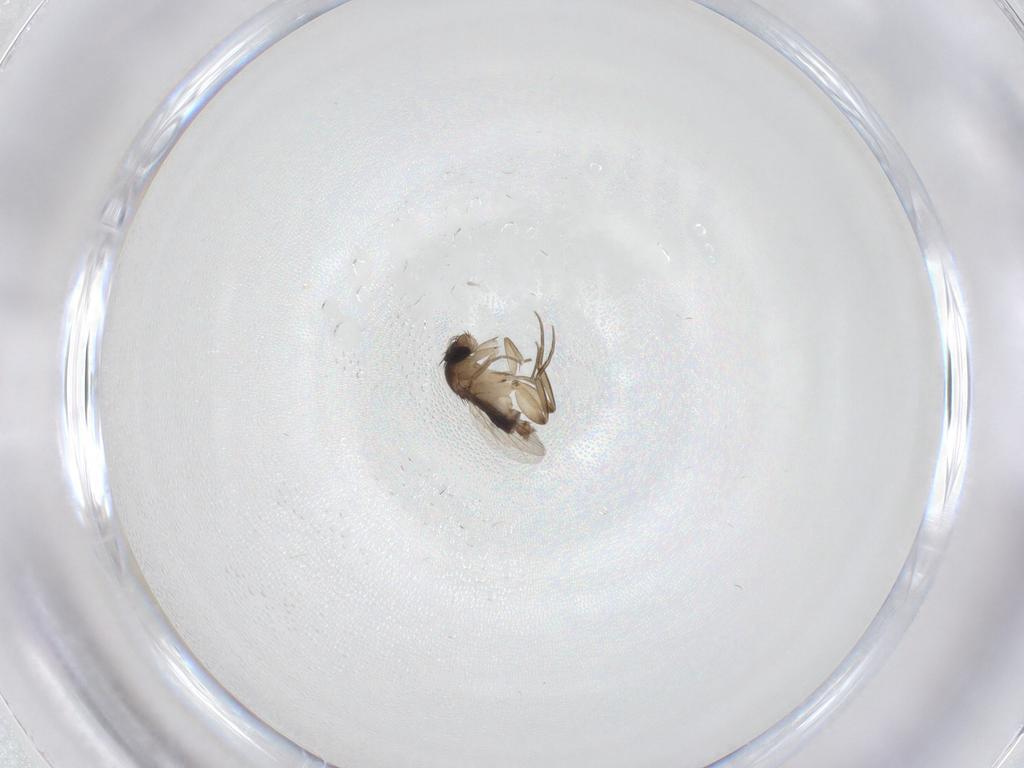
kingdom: Animalia
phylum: Arthropoda
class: Insecta
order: Diptera
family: Phoridae
